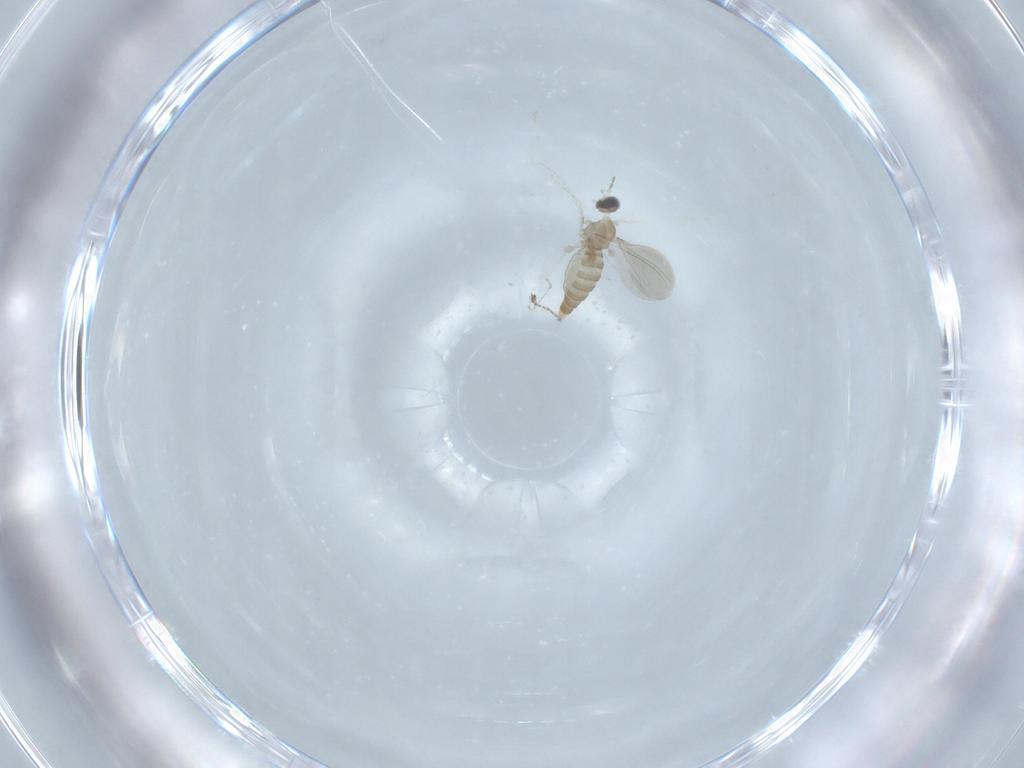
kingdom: Animalia
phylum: Arthropoda
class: Insecta
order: Diptera
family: Cecidomyiidae
